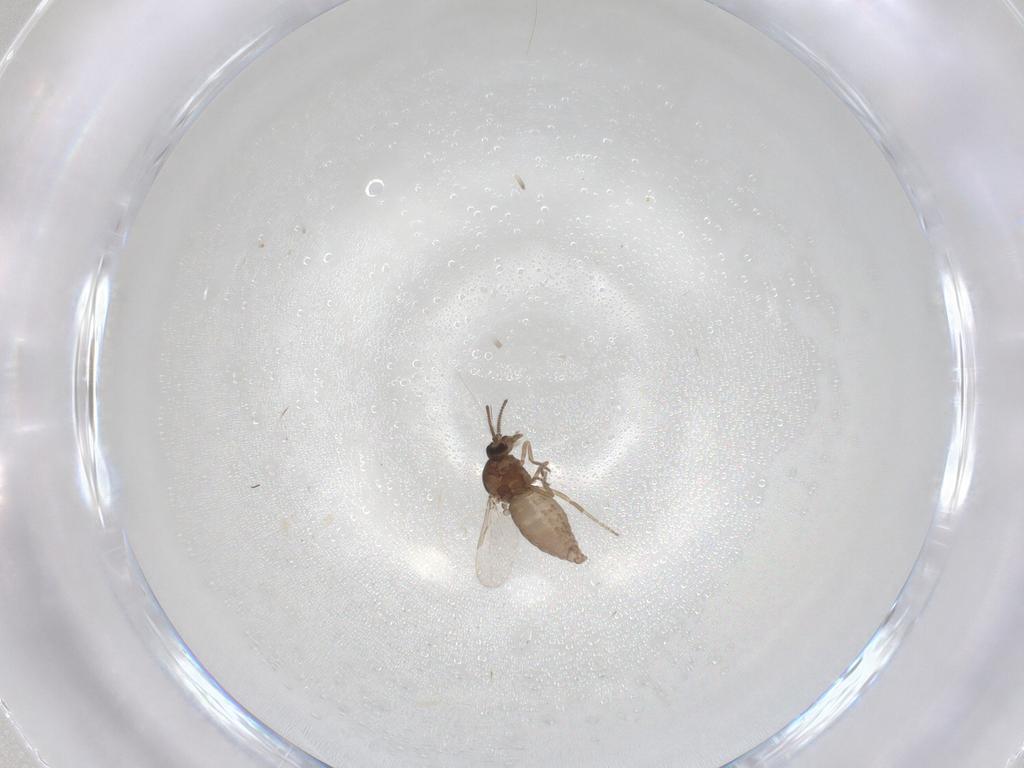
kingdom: Animalia
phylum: Arthropoda
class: Insecta
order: Diptera
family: Ceratopogonidae
